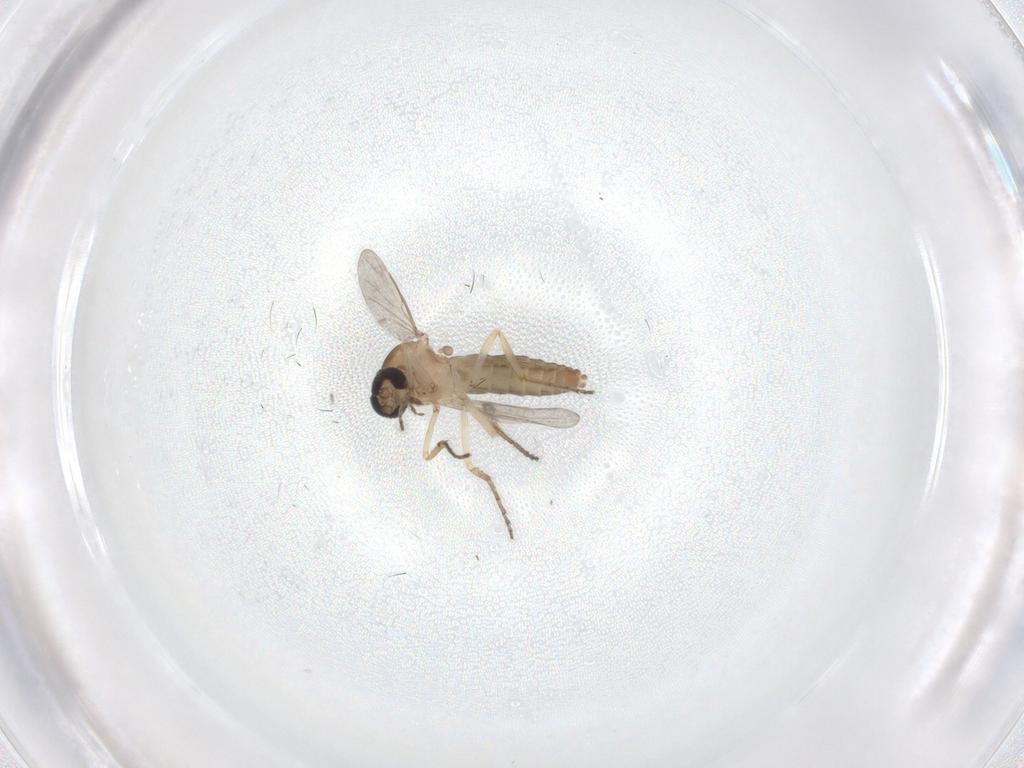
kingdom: Animalia
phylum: Arthropoda
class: Insecta
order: Diptera
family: Ceratopogonidae
